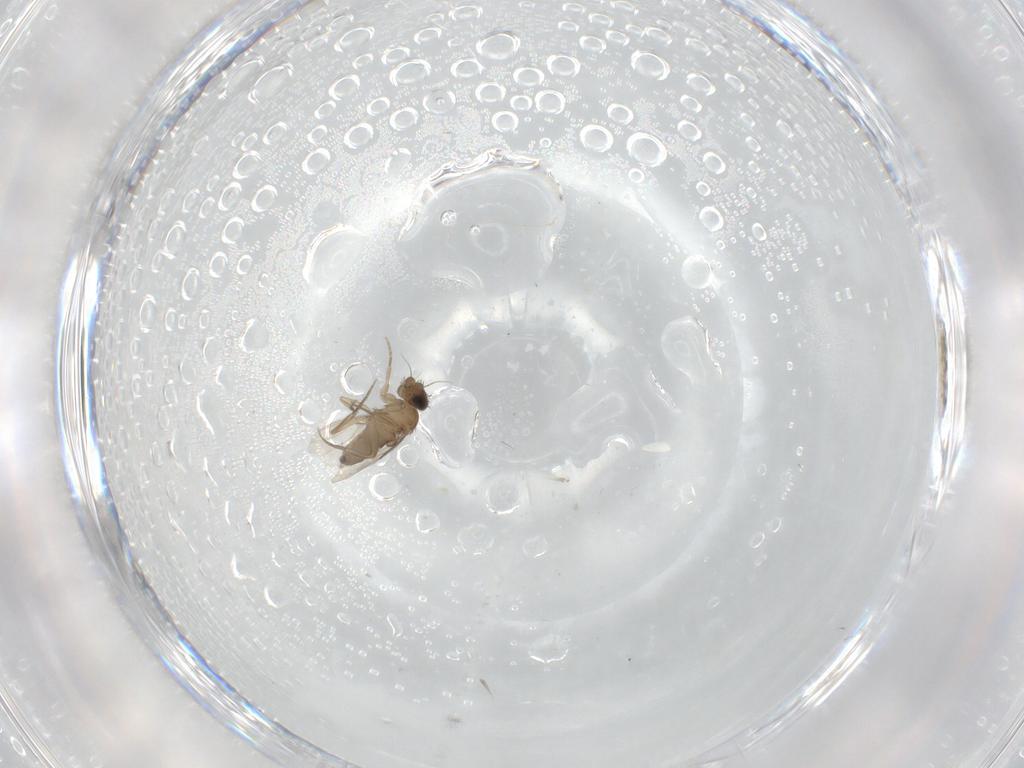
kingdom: Animalia
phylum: Arthropoda
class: Insecta
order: Diptera
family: Phoridae
